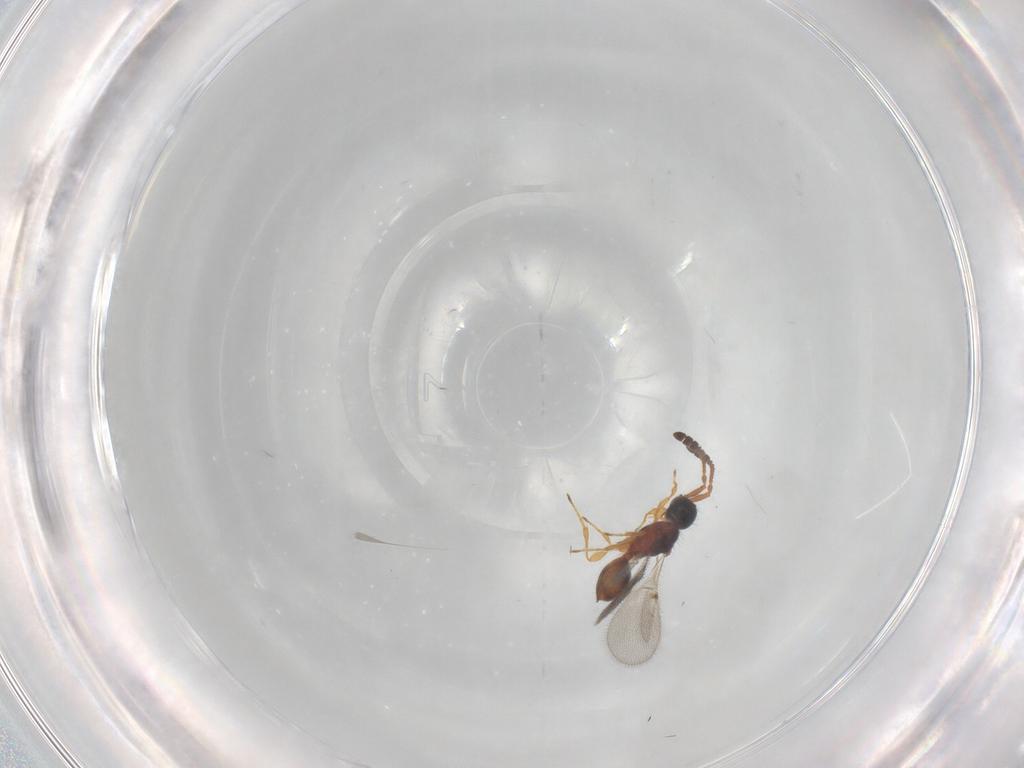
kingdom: Animalia
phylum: Arthropoda
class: Insecta
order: Hymenoptera
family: Diapriidae
